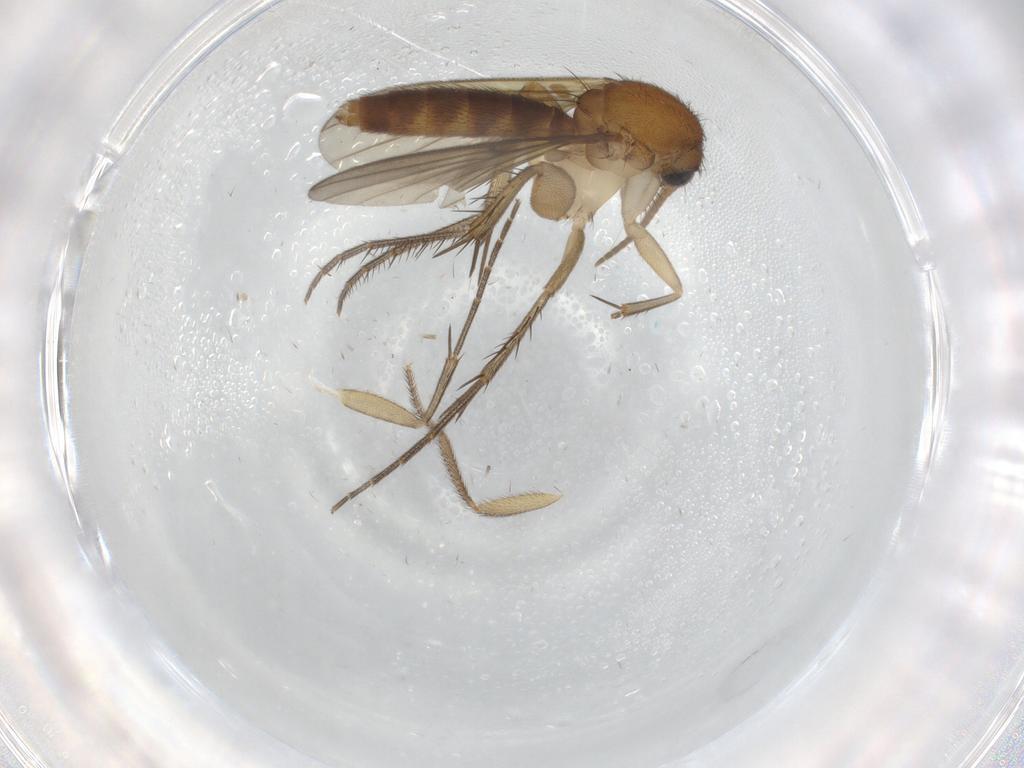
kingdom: Animalia
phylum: Arthropoda
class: Insecta
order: Diptera
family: Mycetophilidae
